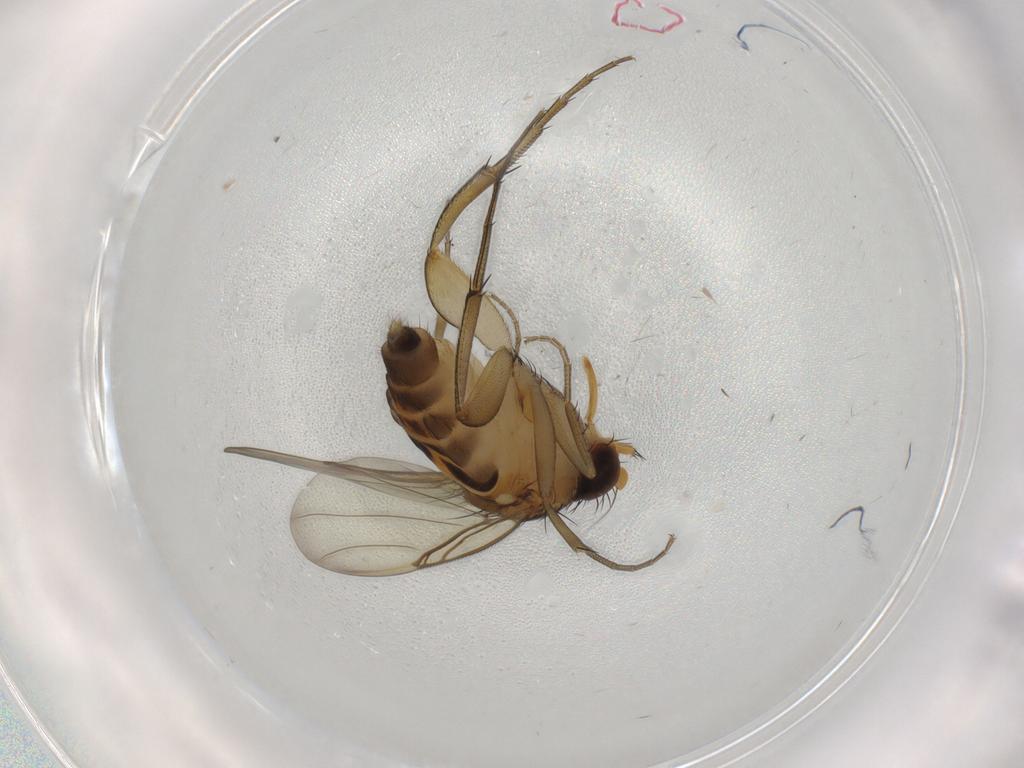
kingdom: Animalia
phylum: Arthropoda
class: Insecta
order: Diptera
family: Phoridae
